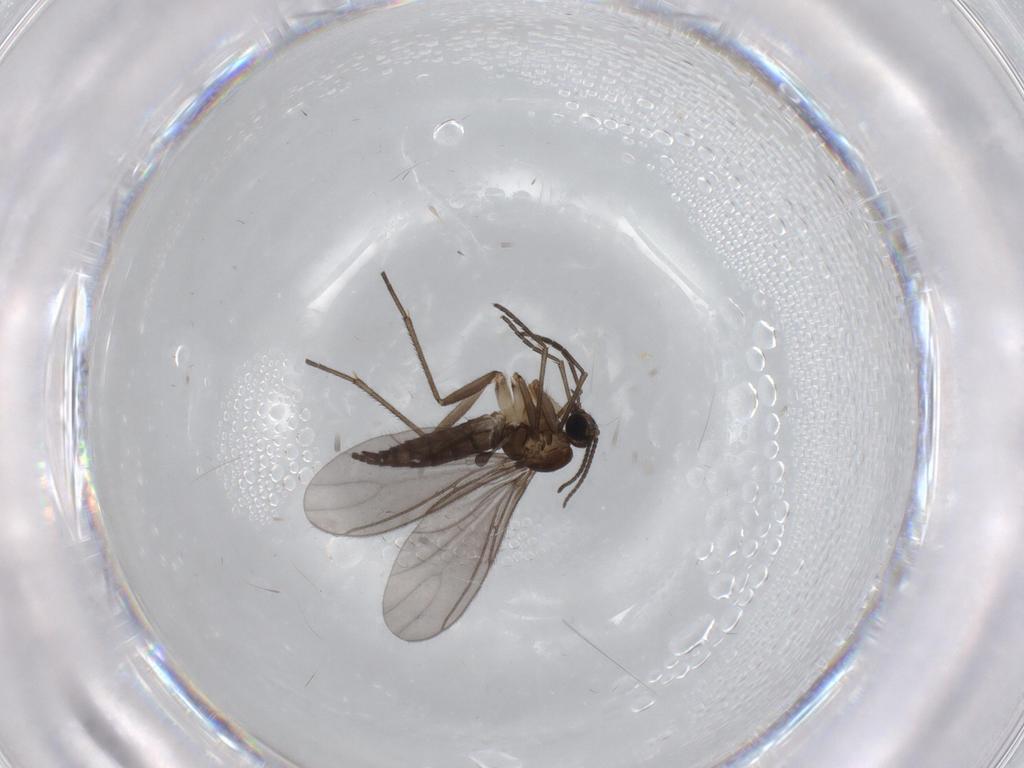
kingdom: Animalia
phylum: Arthropoda
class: Insecta
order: Diptera
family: Sciaridae
